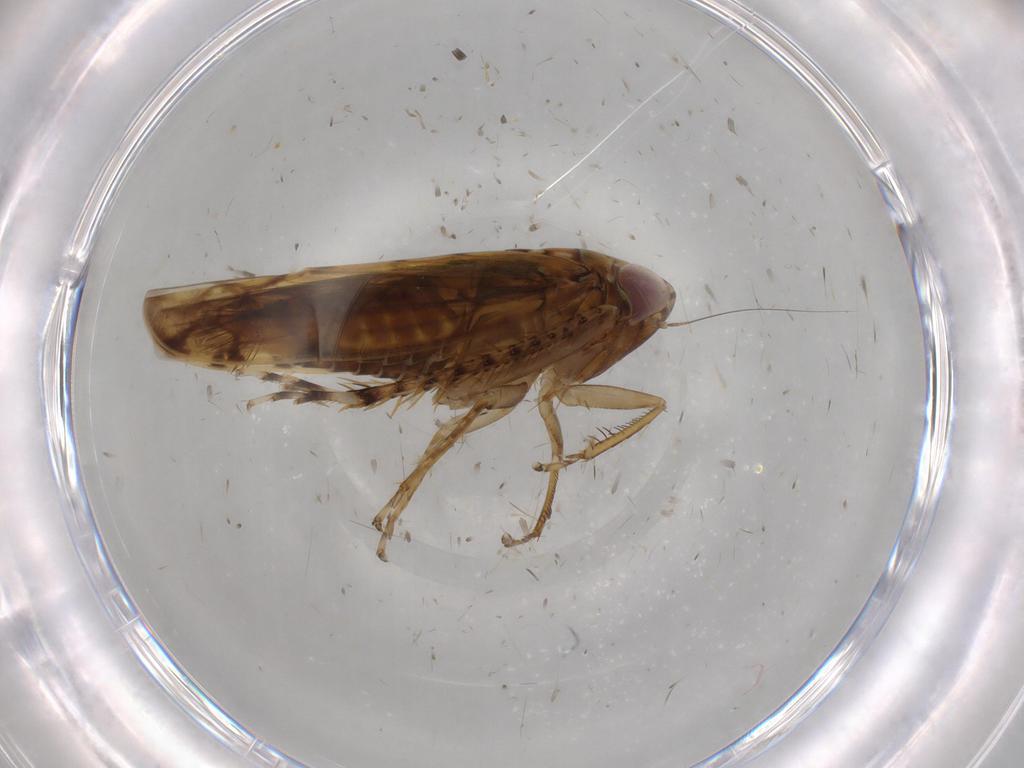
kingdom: Animalia
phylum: Arthropoda
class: Insecta
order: Hemiptera
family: Cicadellidae
